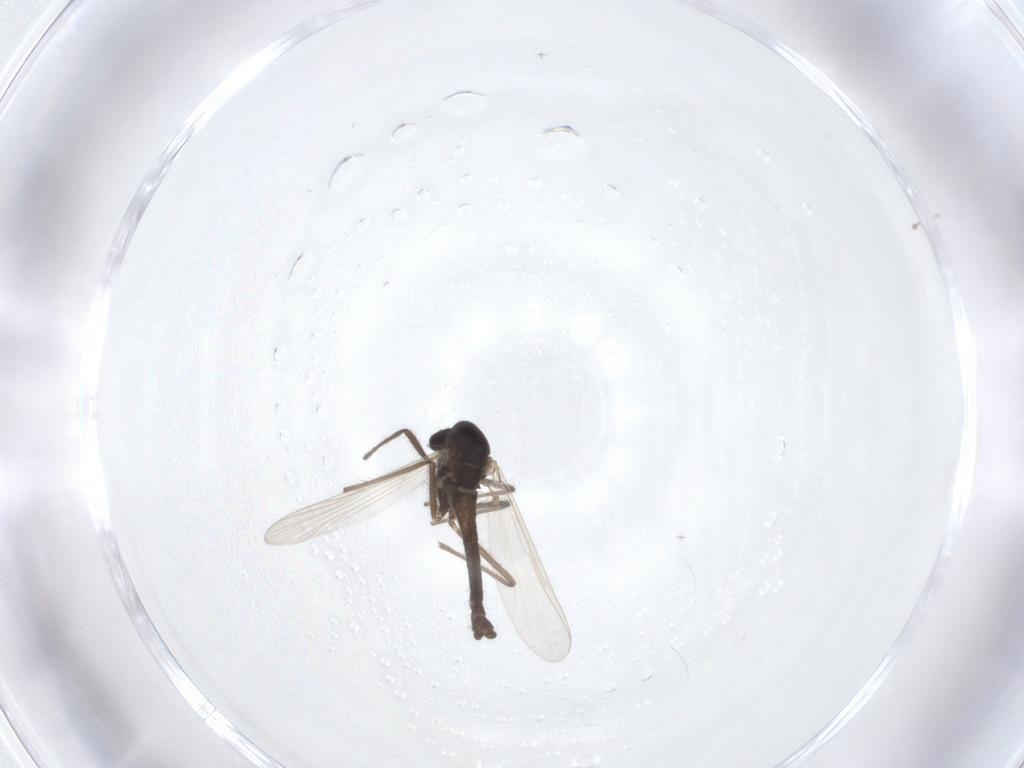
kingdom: Animalia
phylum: Arthropoda
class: Insecta
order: Diptera
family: Chironomidae
